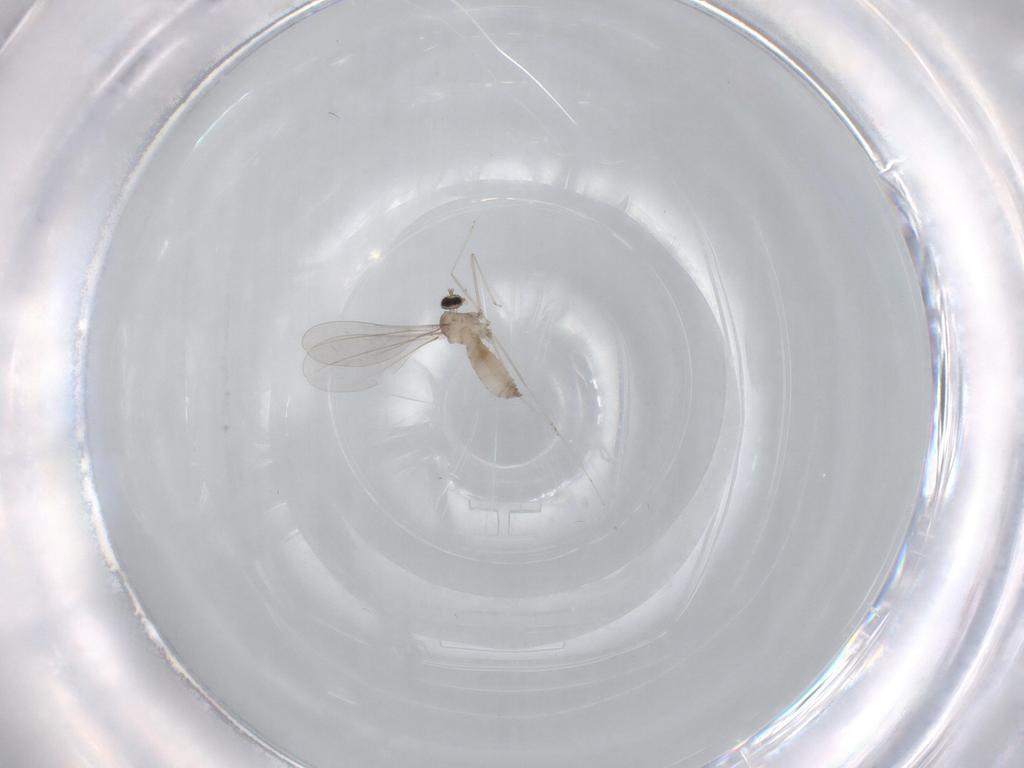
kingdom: Animalia
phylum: Arthropoda
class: Insecta
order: Diptera
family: Cecidomyiidae
